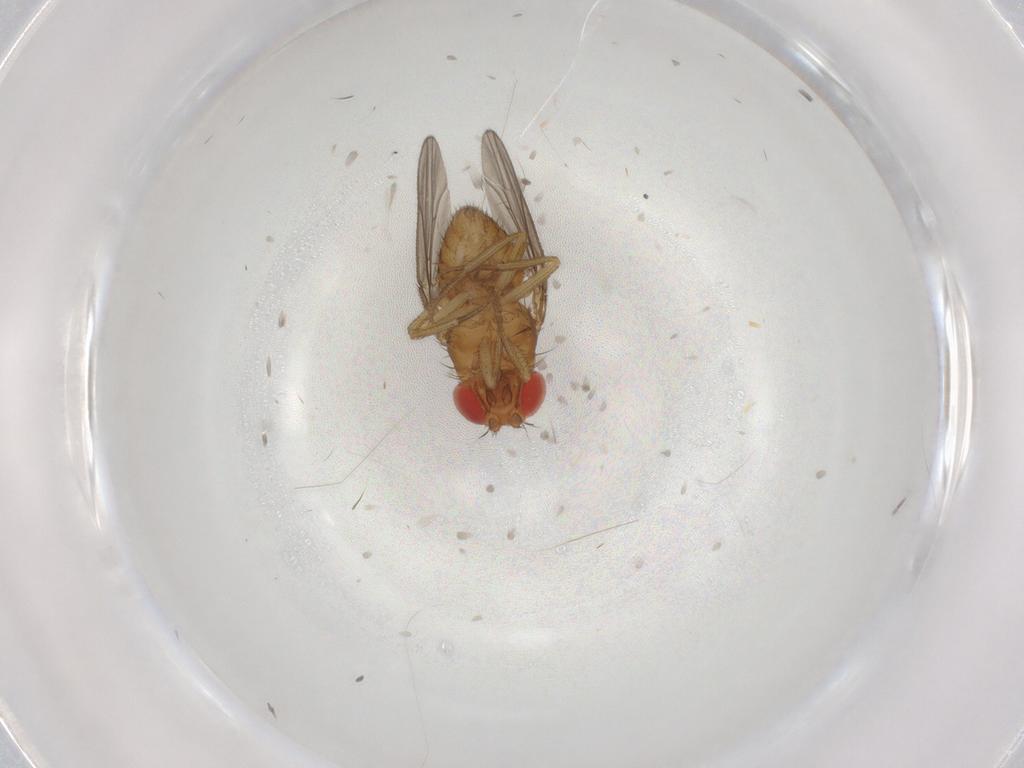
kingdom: Animalia
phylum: Arthropoda
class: Insecta
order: Diptera
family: Drosophilidae
